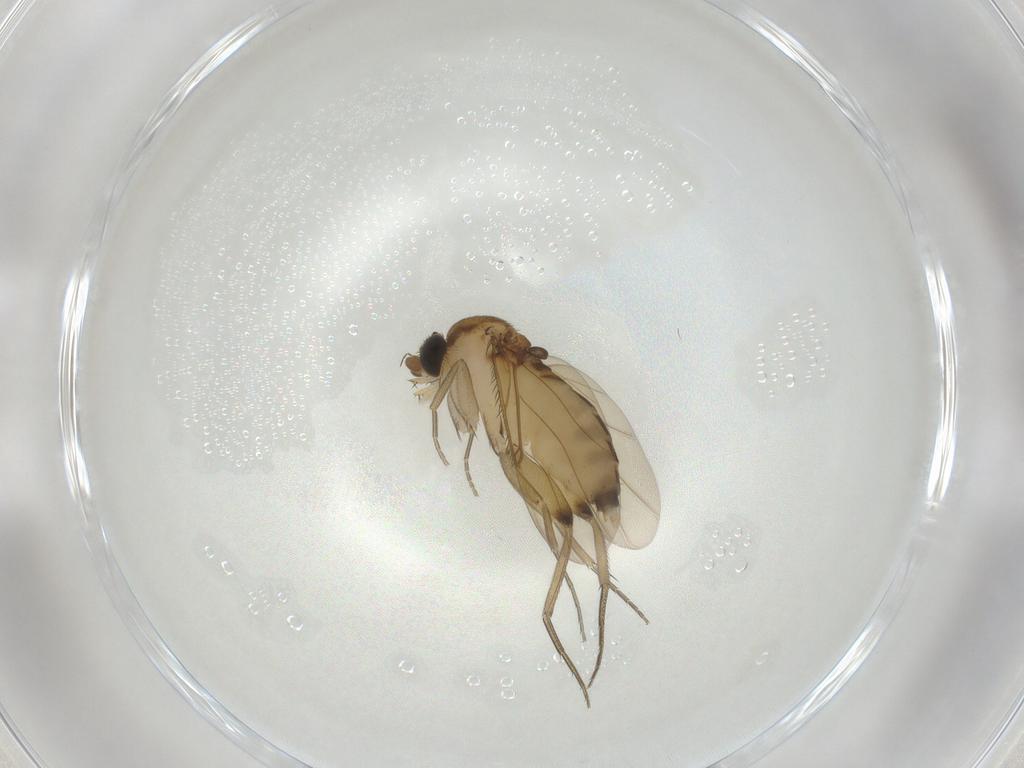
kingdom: Animalia
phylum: Arthropoda
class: Insecta
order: Diptera
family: Phoridae
